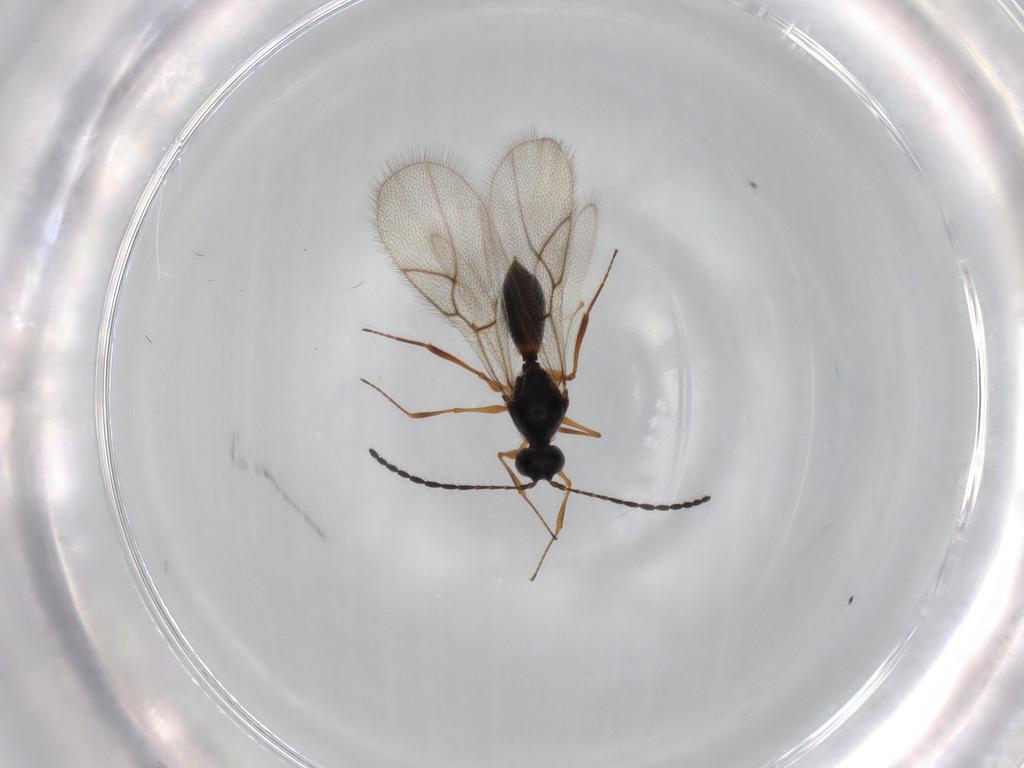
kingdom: Animalia
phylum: Arthropoda
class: Insecta
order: Hymenoptera
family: Figitidae
